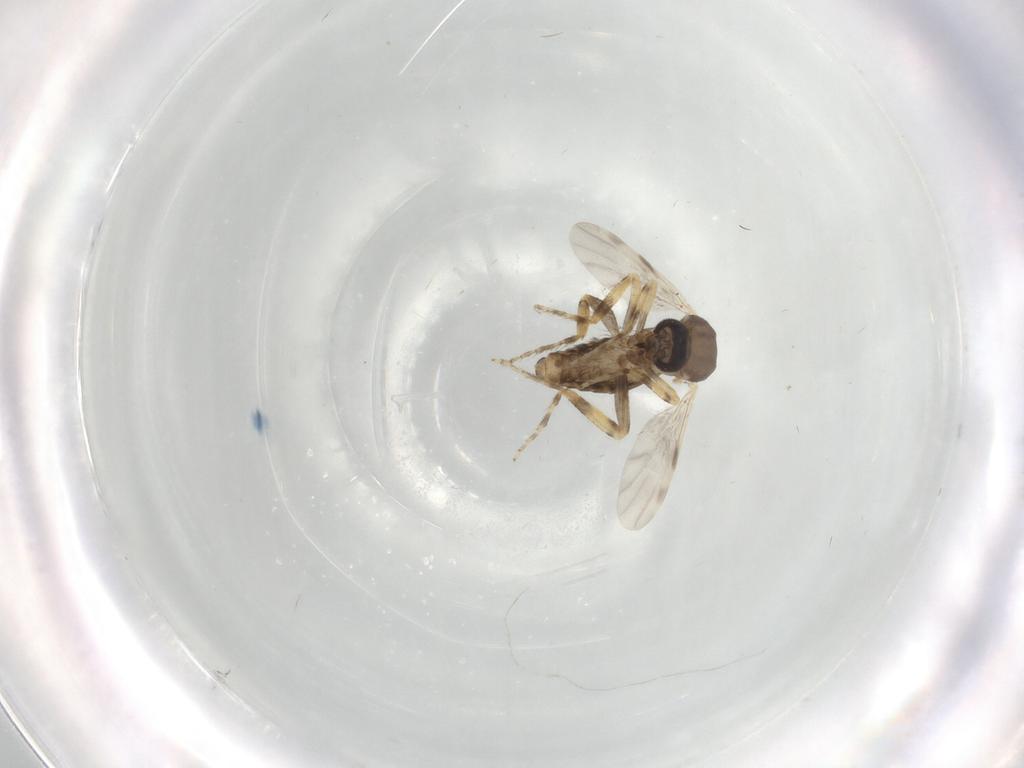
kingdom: Animalia
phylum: Arthropoda
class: Insecta
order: Diptera
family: Ceratopogonidae
